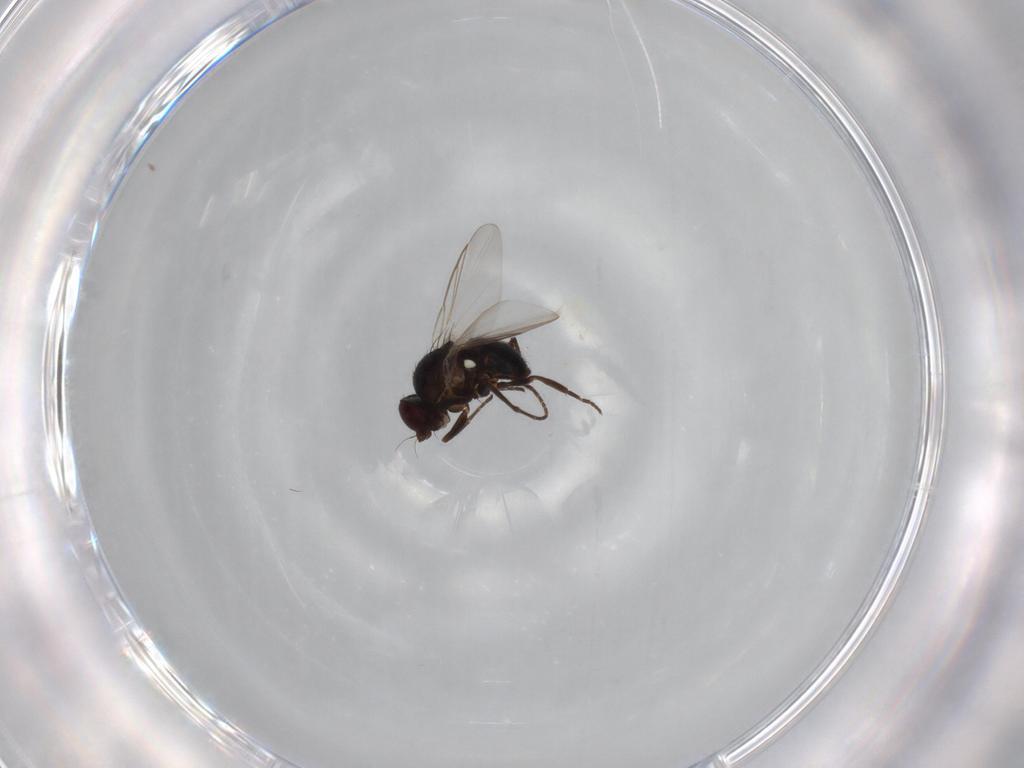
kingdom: Animalia
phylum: Arthropoda
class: Insecta
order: Diptera
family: Agromyzidae
